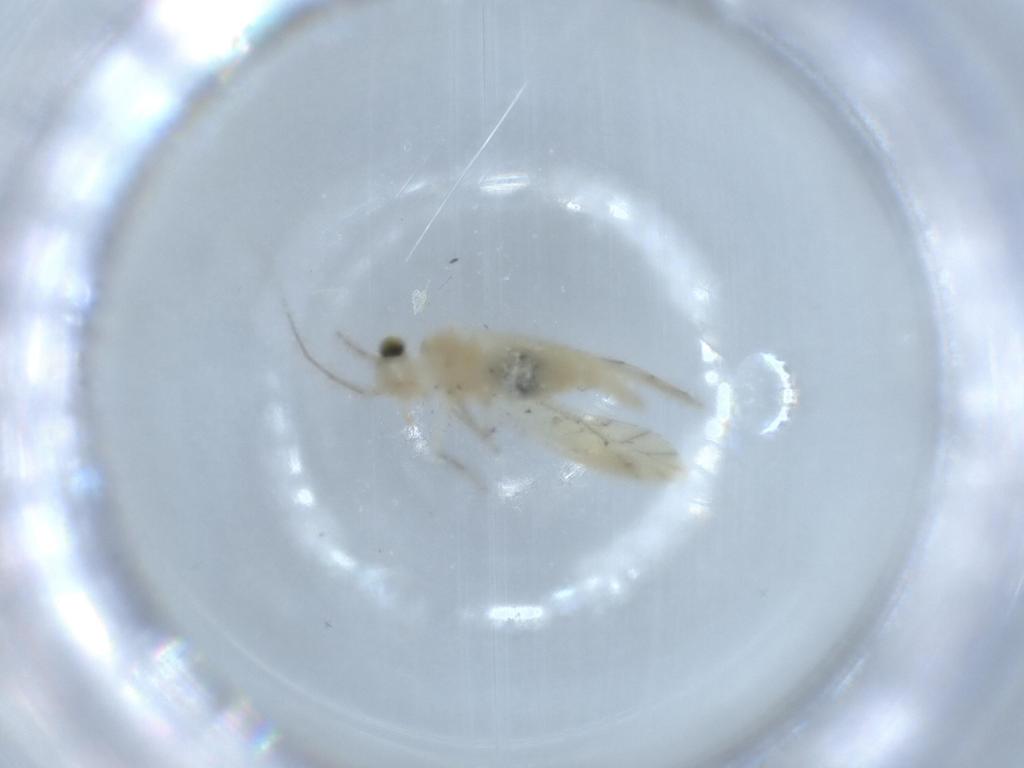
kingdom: Animalia
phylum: Arthropoda
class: Insecta
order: Psocodea
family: Caeciliusidae
